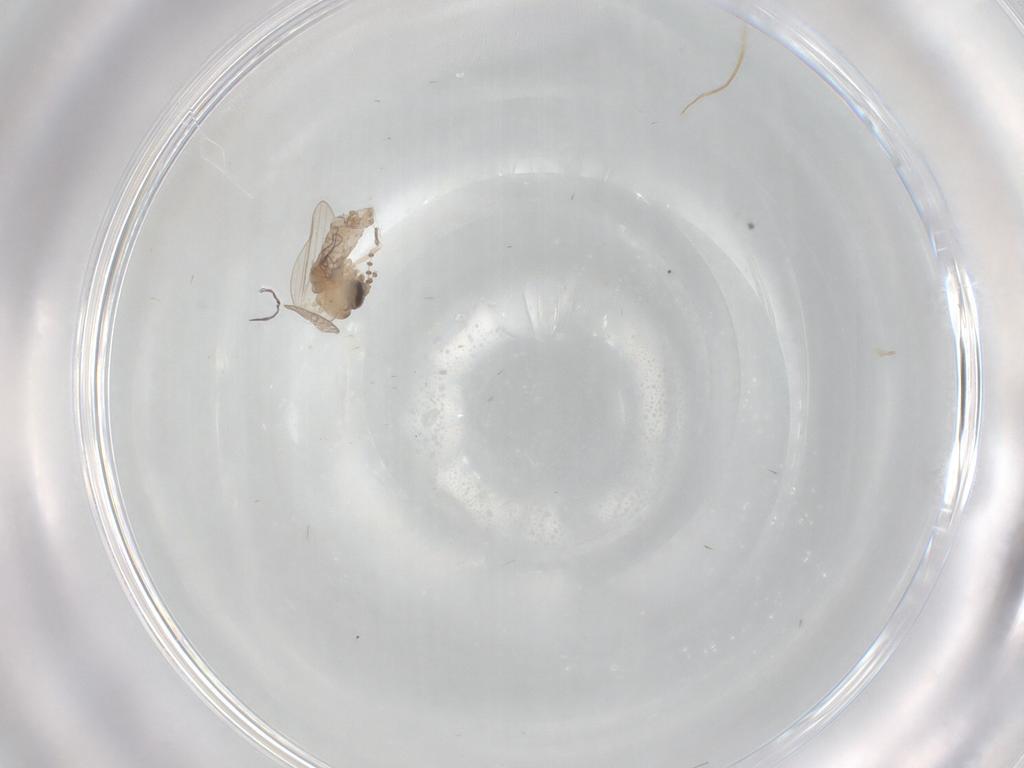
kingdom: Animalia
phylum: Arthropoda
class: Insecta
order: Diptera
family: Psychodidae
